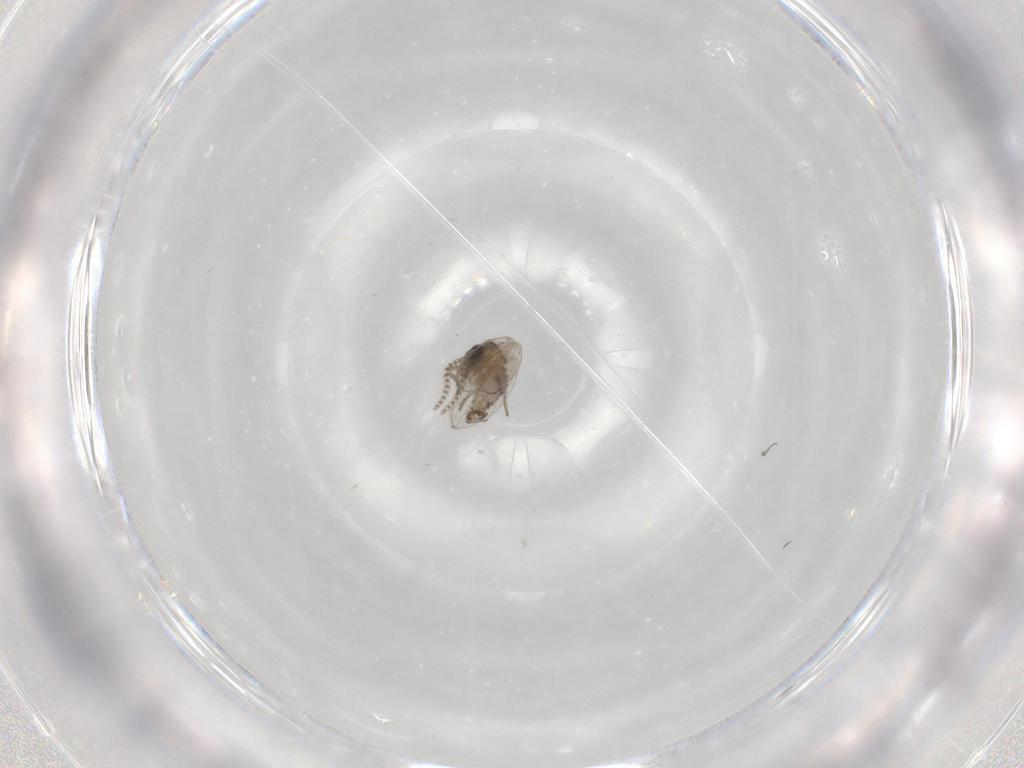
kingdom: Animalia
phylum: Arthropoda
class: Insecta
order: Diptera
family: Psychodidae
